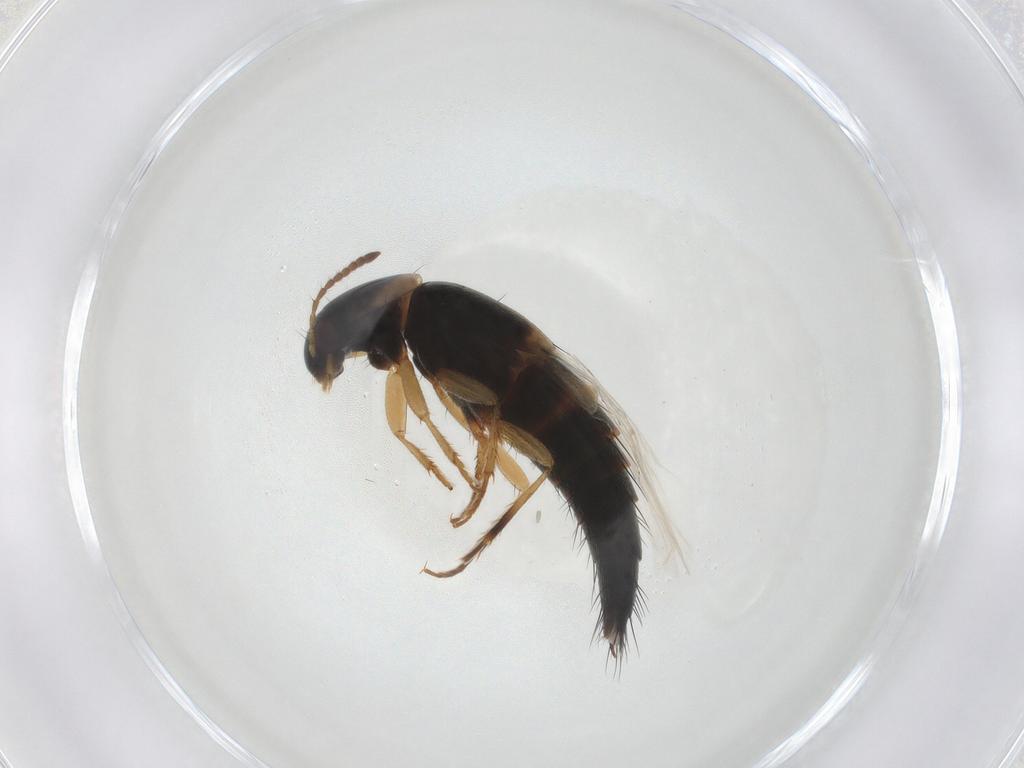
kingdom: Animalia
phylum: Arthropoda
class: Insecta
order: Coleoptera
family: Staphylinidae
